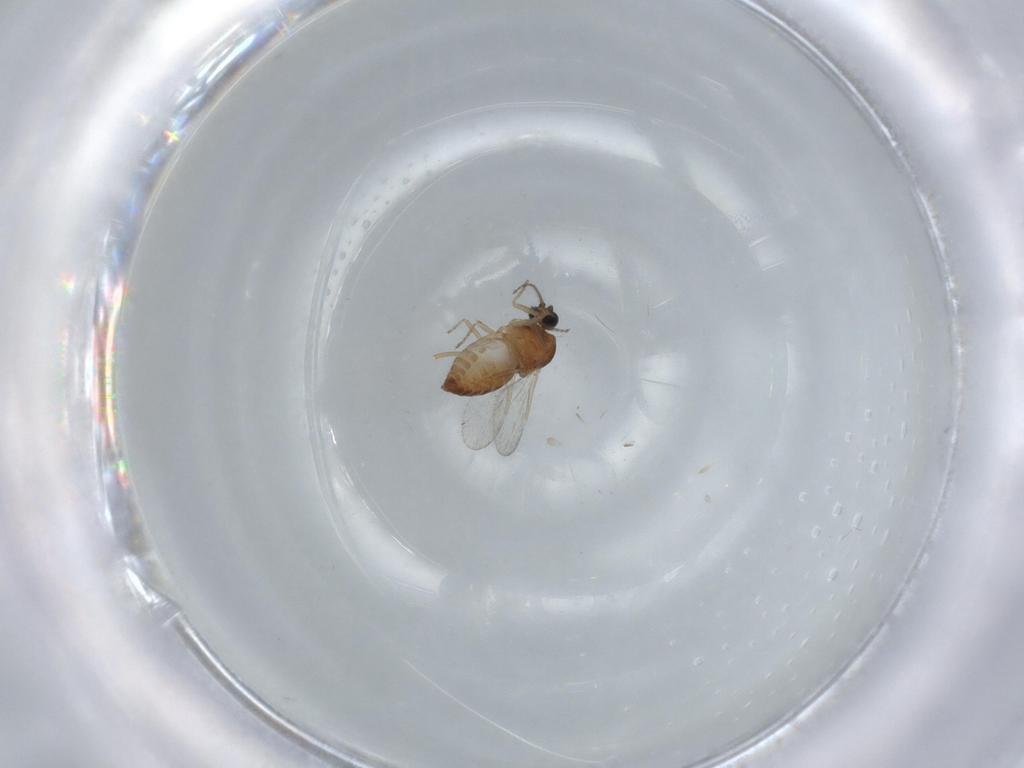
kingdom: Animalia
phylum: Arthropoda
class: Insecta
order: Diptera
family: Ceratopogonidae
